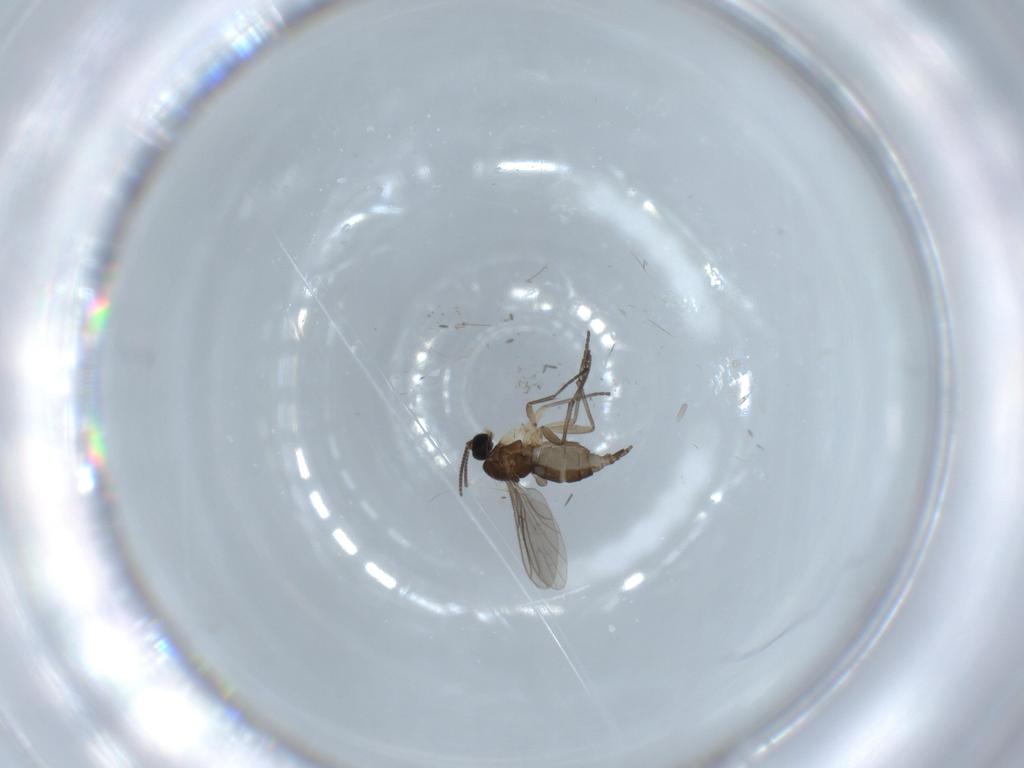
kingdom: Animalia
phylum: Arthropoda
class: Insecta
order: Diptera
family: Sciaridae
